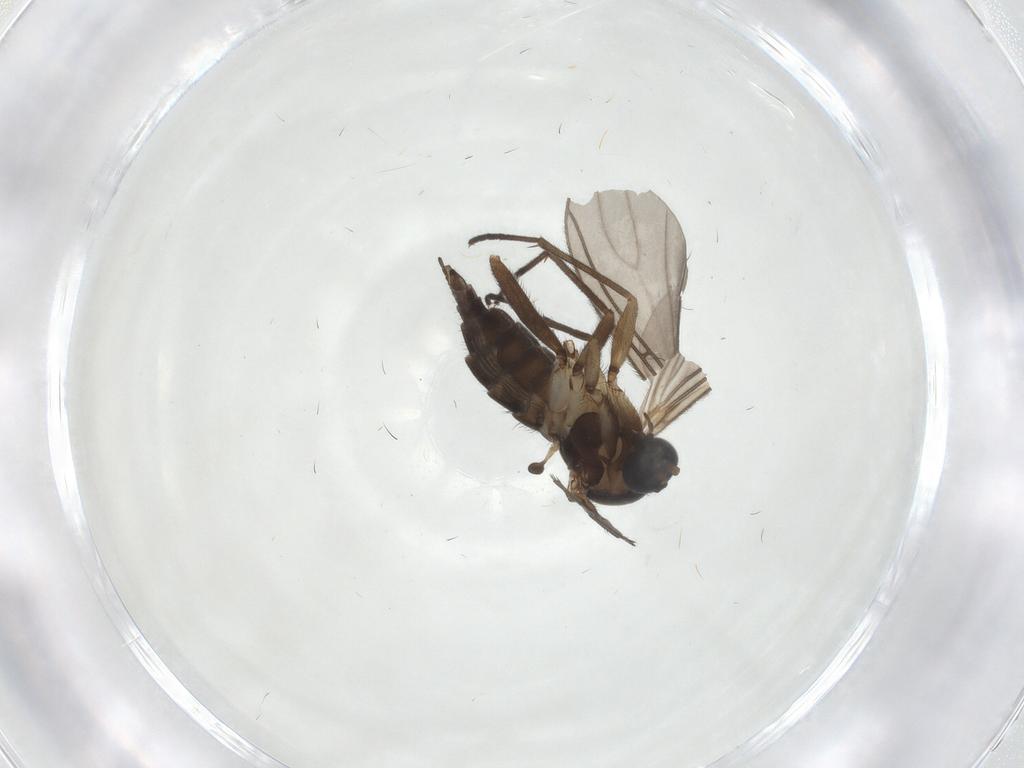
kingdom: Animalia
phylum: Arthropoda
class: Insecta
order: Diptera
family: Sciaridae
